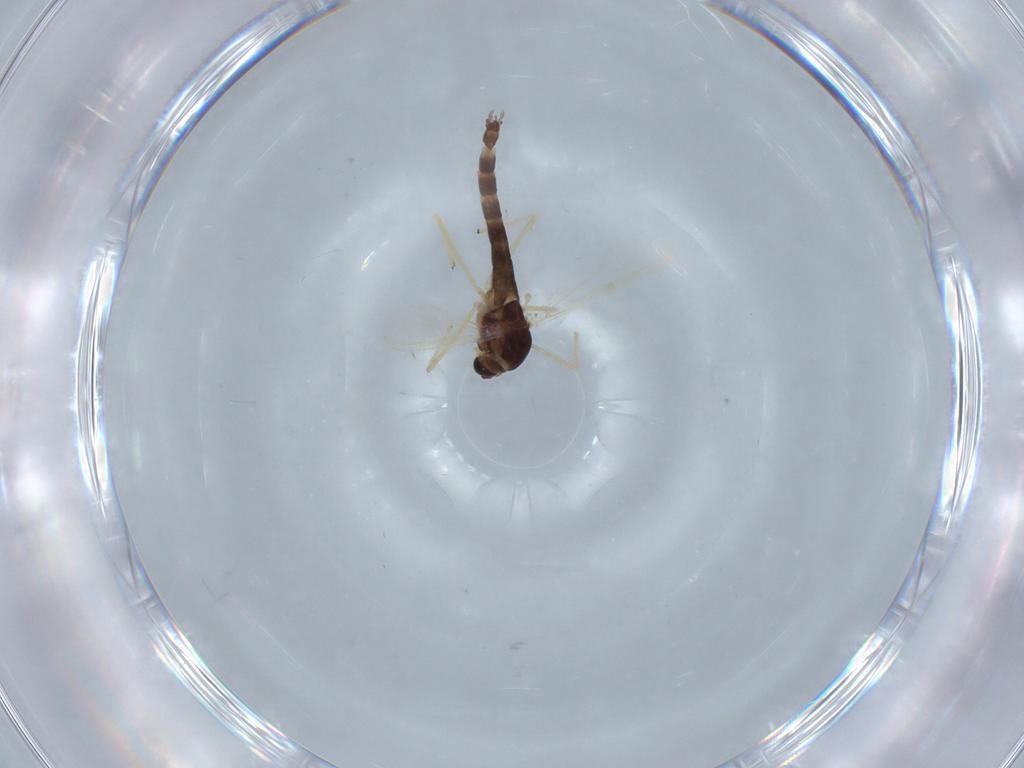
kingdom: Animalia
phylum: Arthropoda
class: Insecta
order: Diptera
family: Chironomidae
